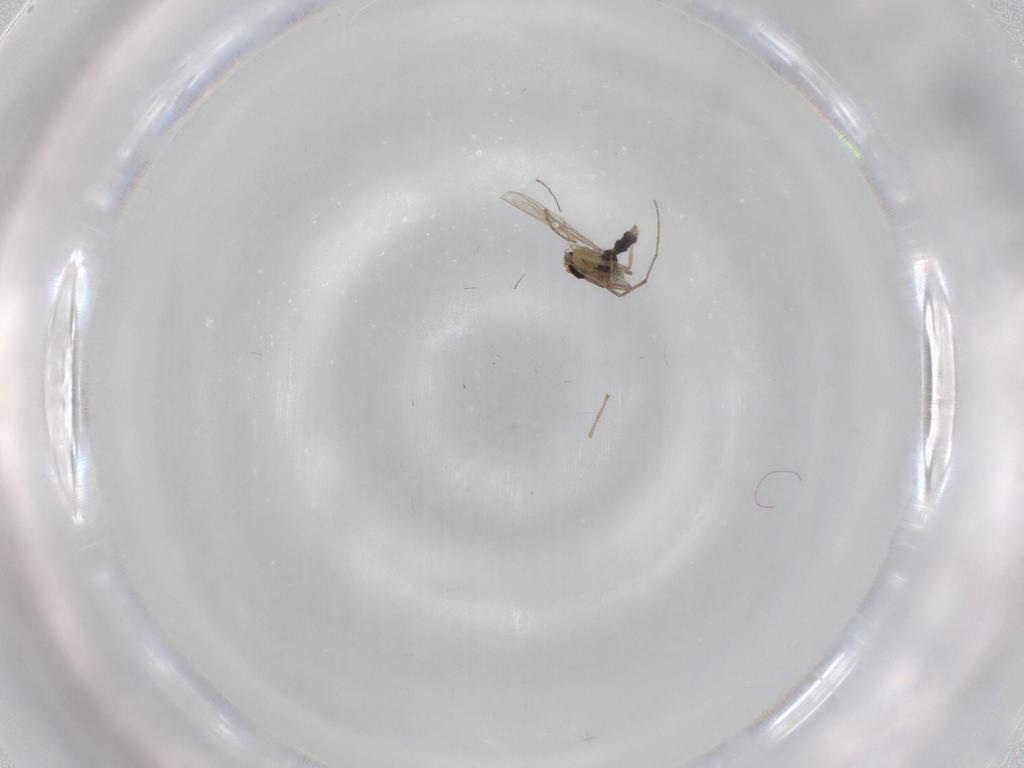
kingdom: Animalia
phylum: Arthropoda
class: Insecta
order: Diptera
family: Chironomidae
